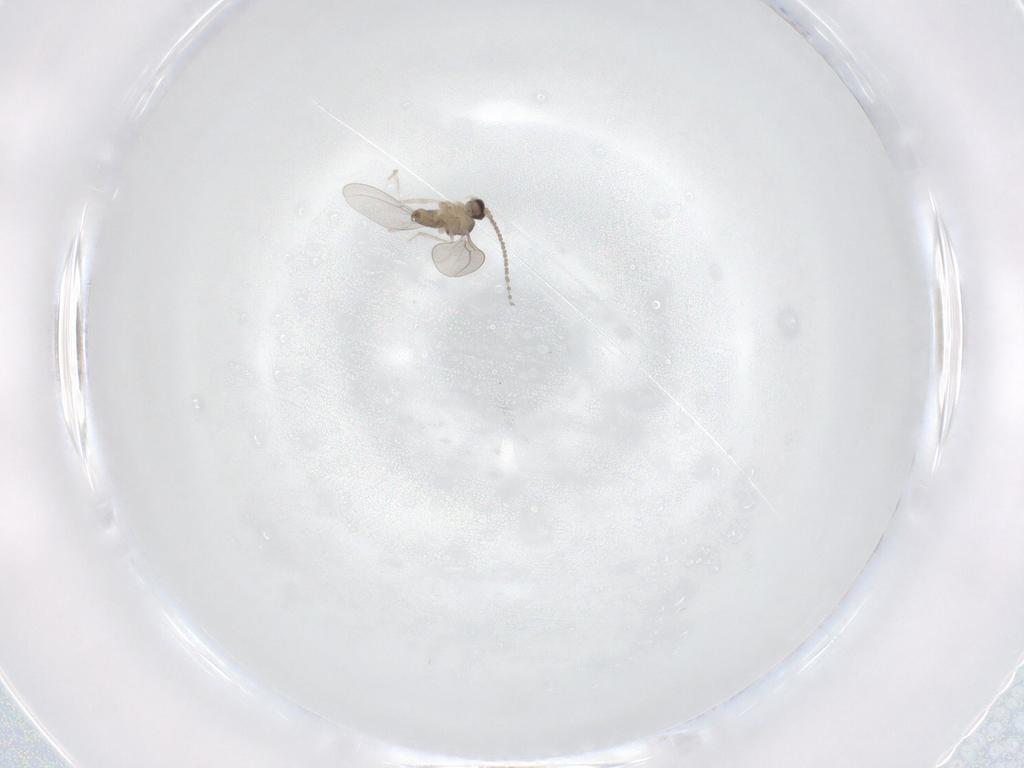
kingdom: Animalia
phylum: Arthropoda
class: Insecta
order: Diptera
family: Cecidomyiidae
